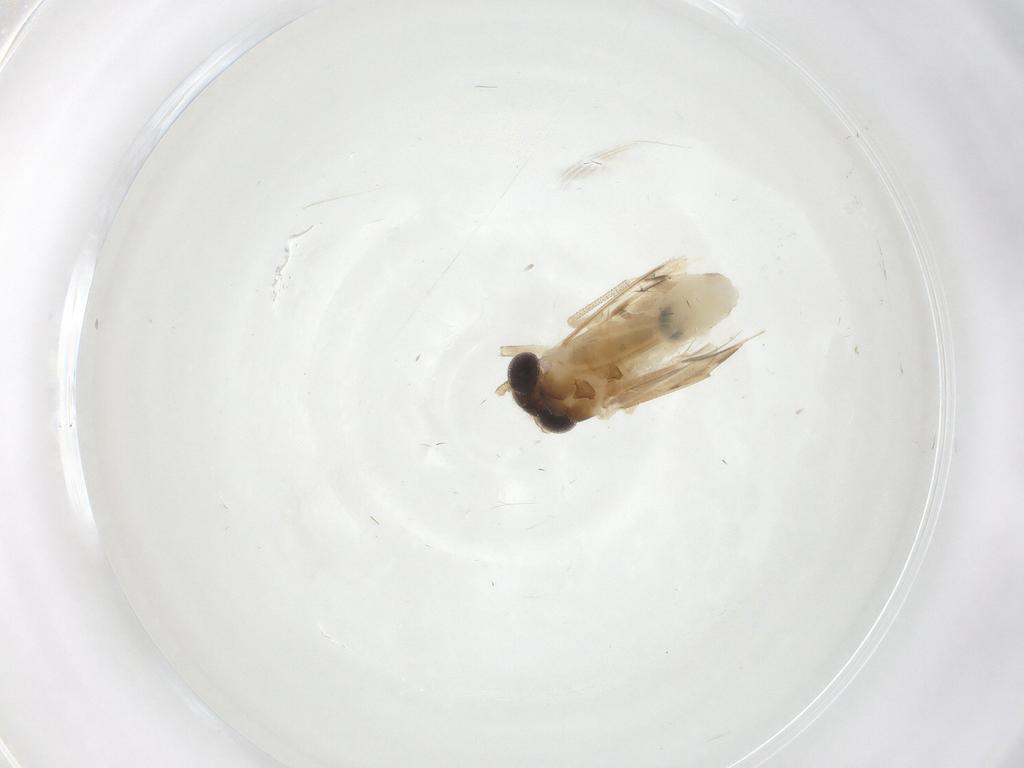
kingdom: Animalia
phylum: Arthropoda
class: Insecta
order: Psocodea
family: Caeciliusidae
